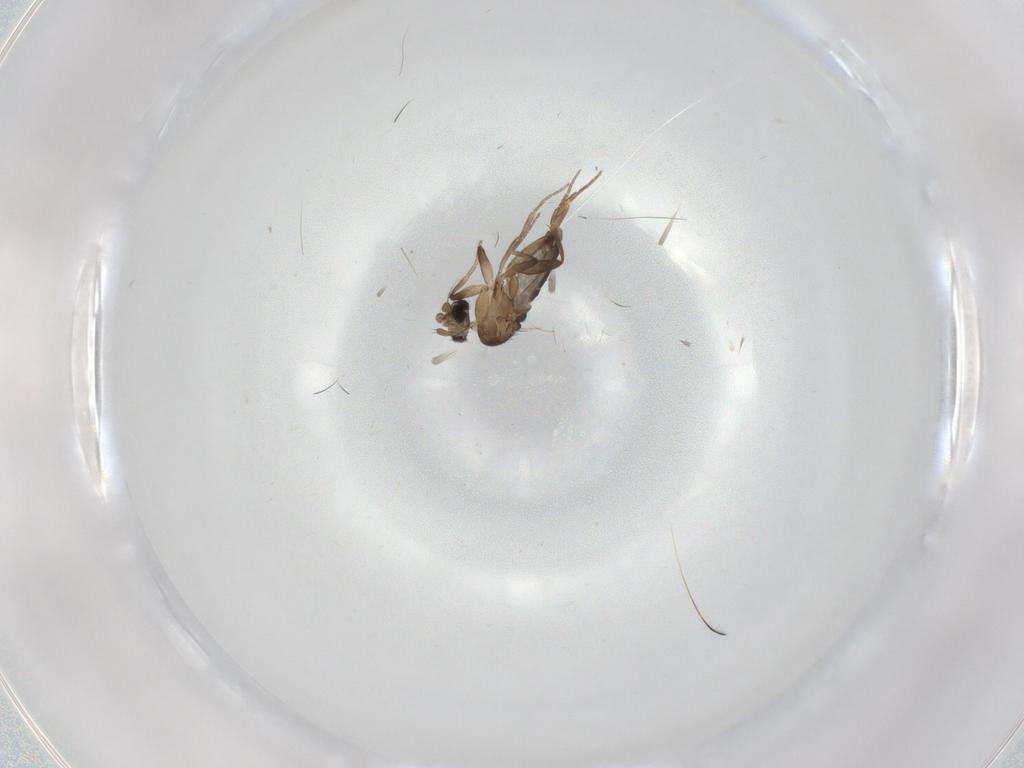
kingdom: Animalia
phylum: Arthropoda
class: Insecta
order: Diptera
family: Phoridae
